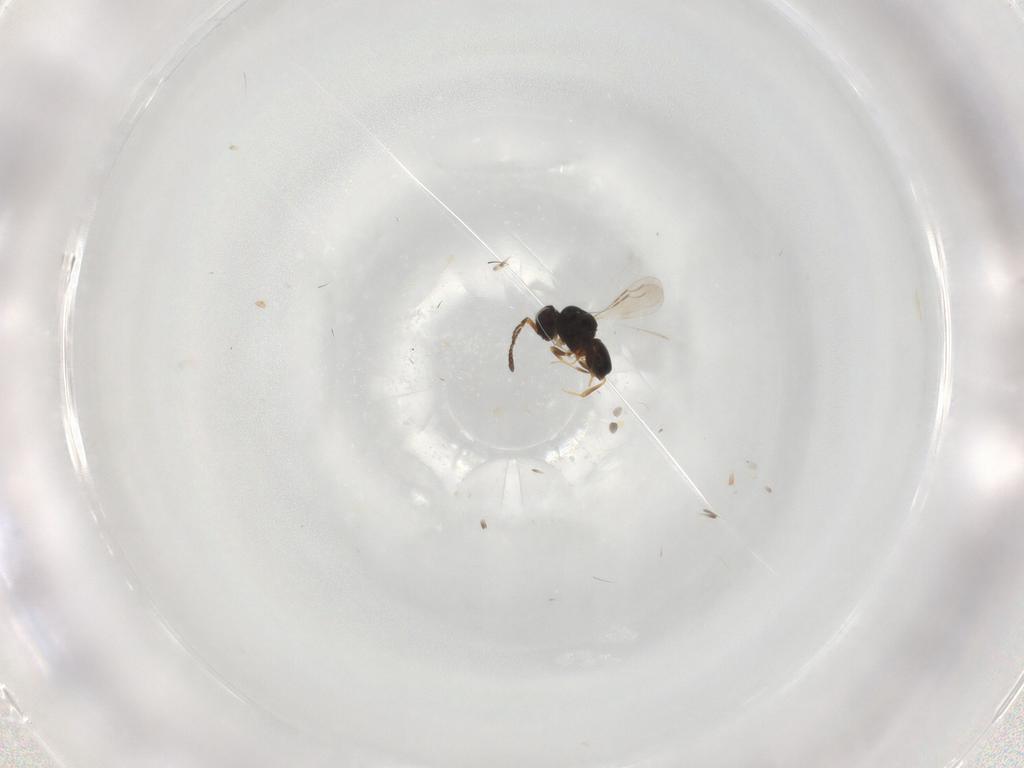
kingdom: Animalia
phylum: Arthropoda
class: Insecta
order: Hymenoptera
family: Ceraphronidae
